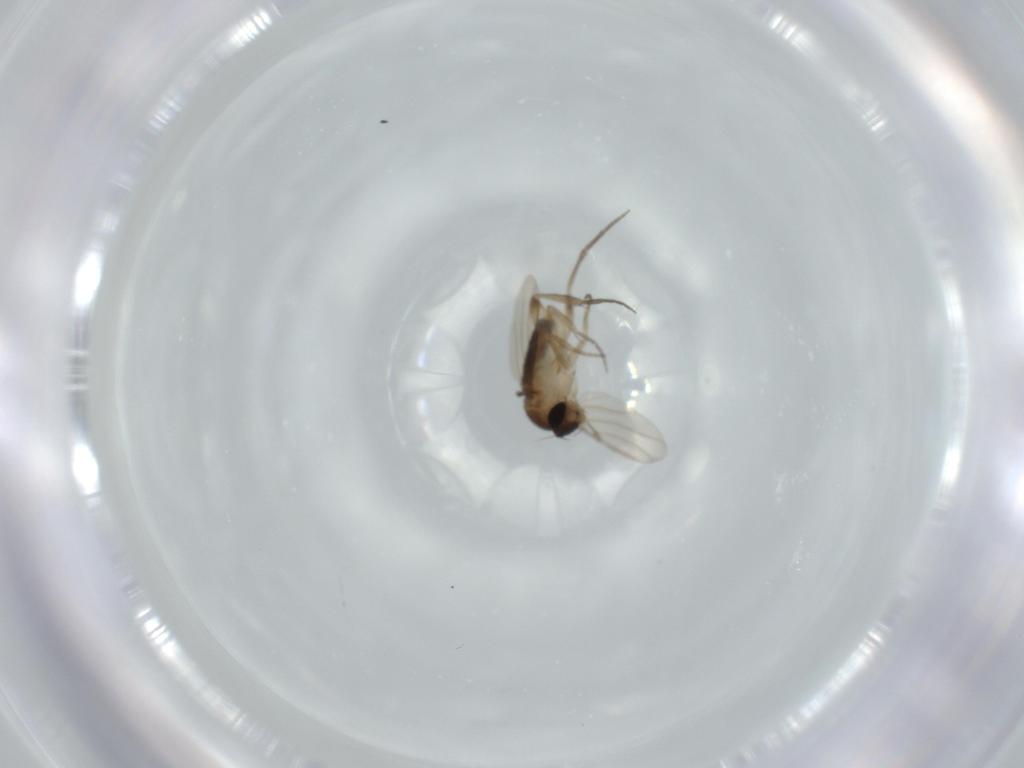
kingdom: Animalia
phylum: Arthropoda
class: Insecta
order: Diptera
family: Phoridae
